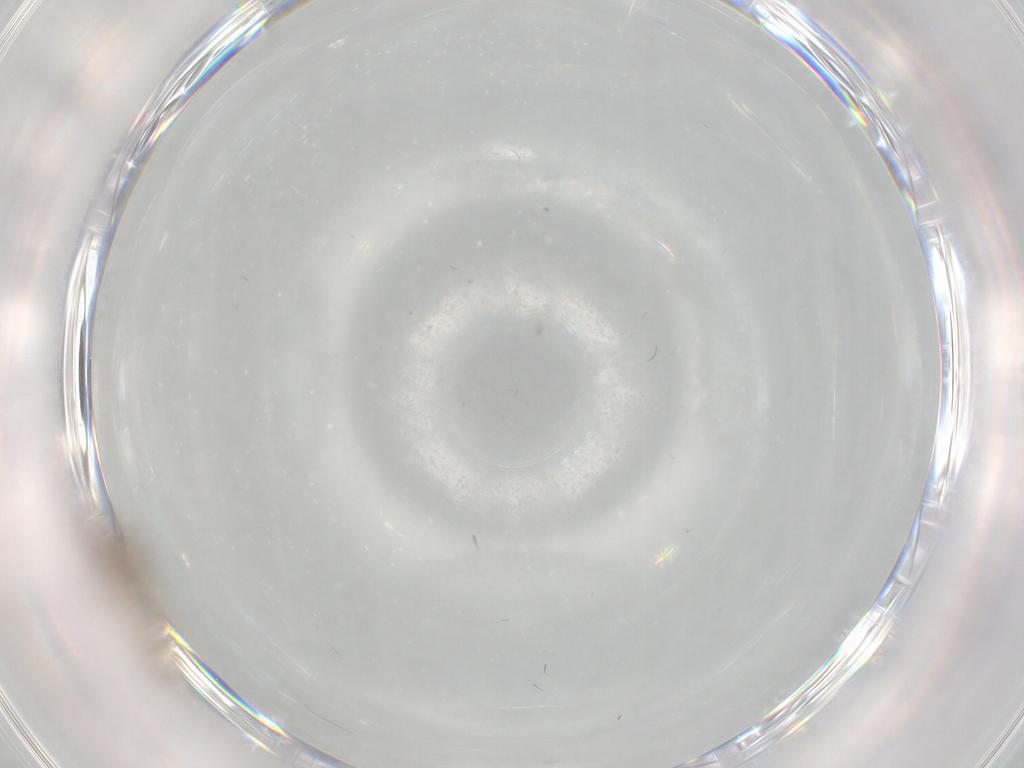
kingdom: Animalia
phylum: Arthropoda
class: Insecta
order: Diptera
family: Cecidomyiidae
